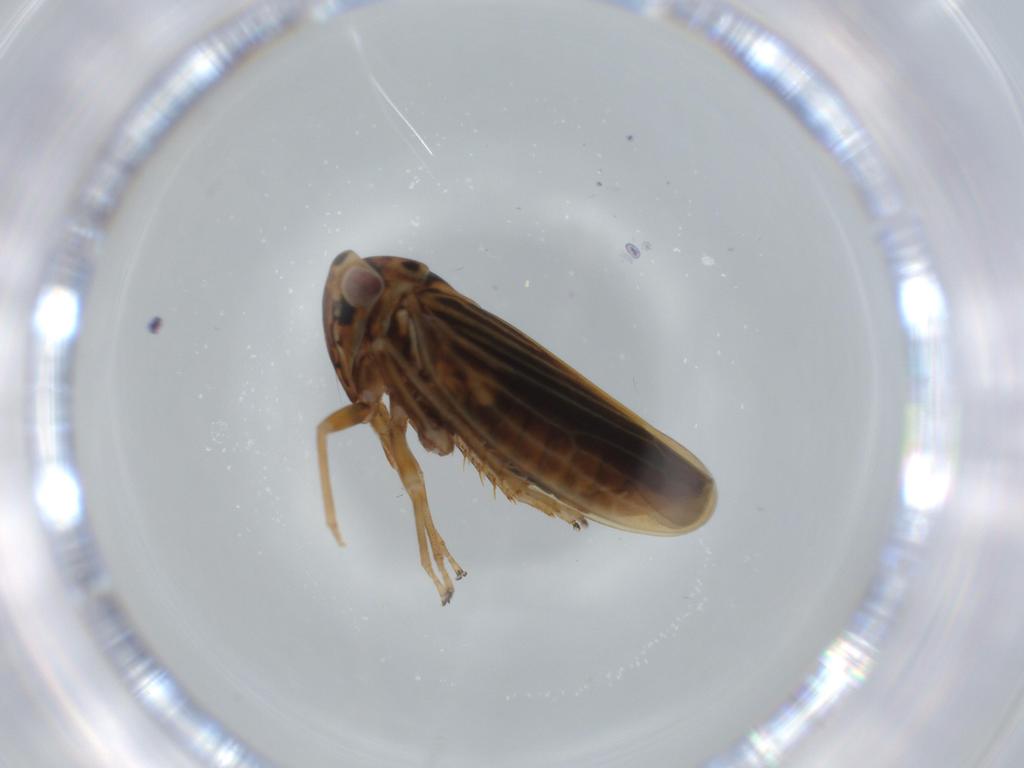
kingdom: Animalia
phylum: Arthropoda
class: Insecta
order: Hemiptera
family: Cicadellidae
